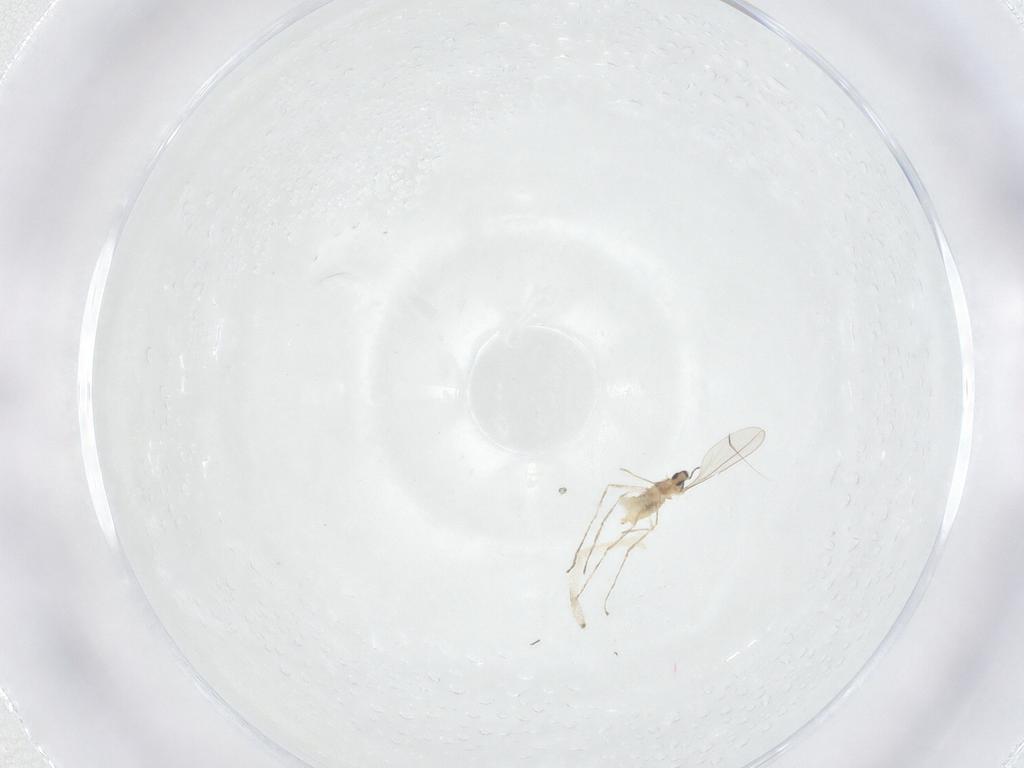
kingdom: Animalia
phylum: Arthropoda
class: Insecta
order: Diptera
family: Cecidomyiidae
